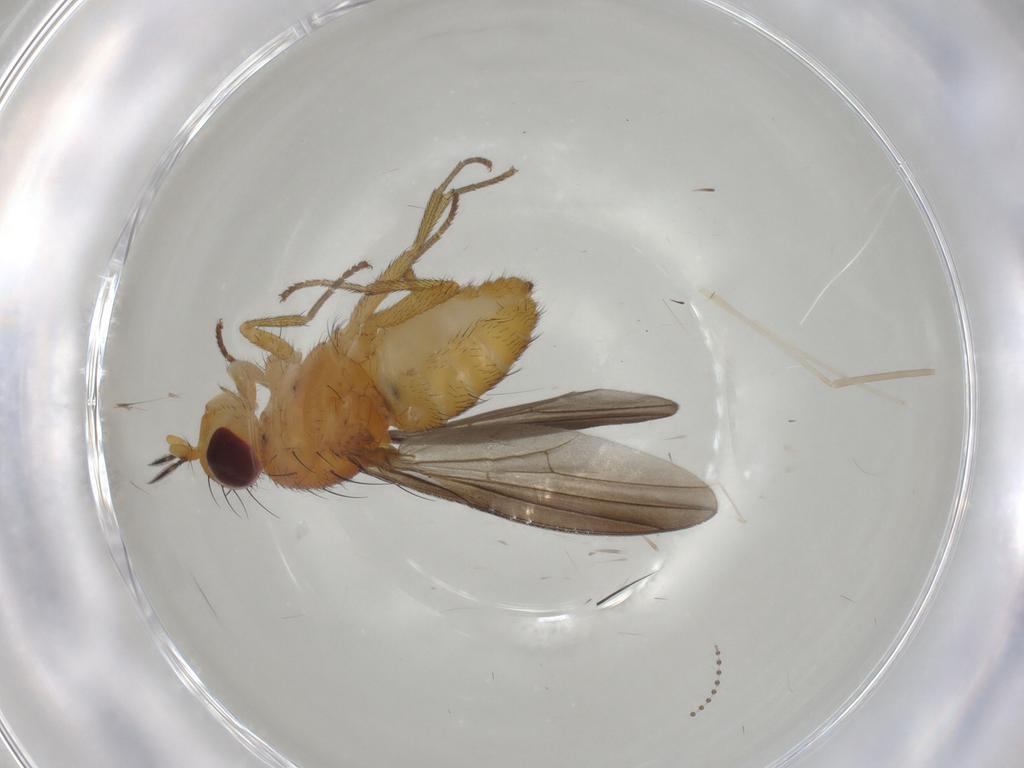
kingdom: Animalia
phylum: Arthropoda
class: Insecta
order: Diptera
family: Cecidomyiidae
